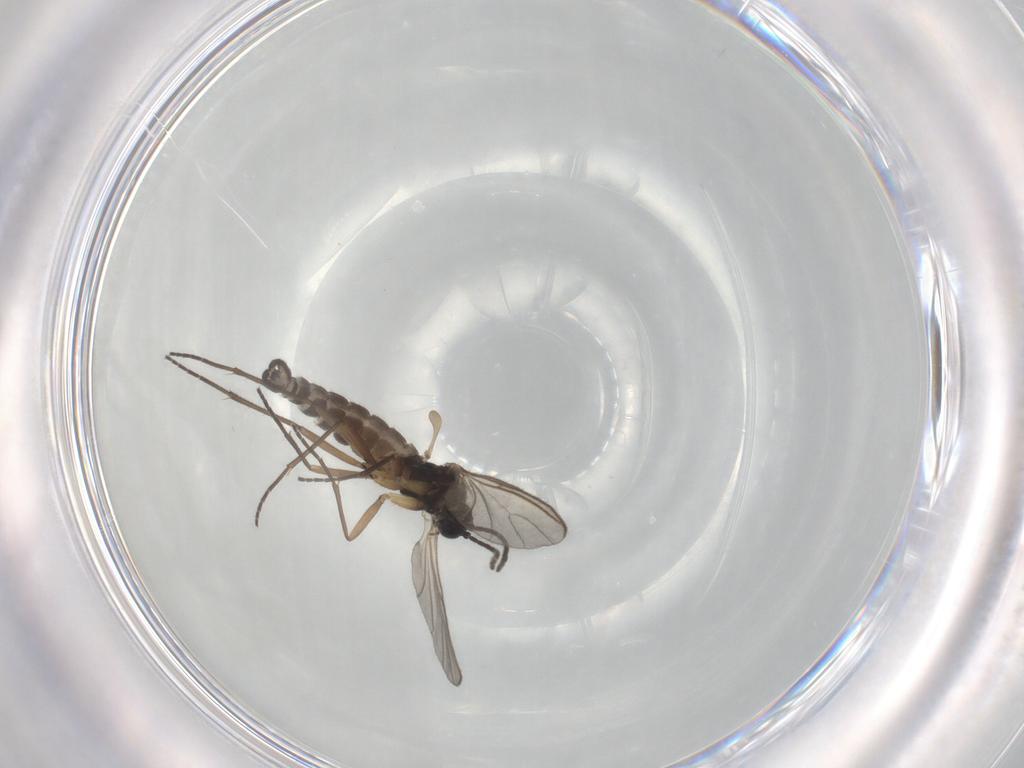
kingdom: Animalia
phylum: Arthropoda
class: Insecta
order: Diptera
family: Sciaridae
